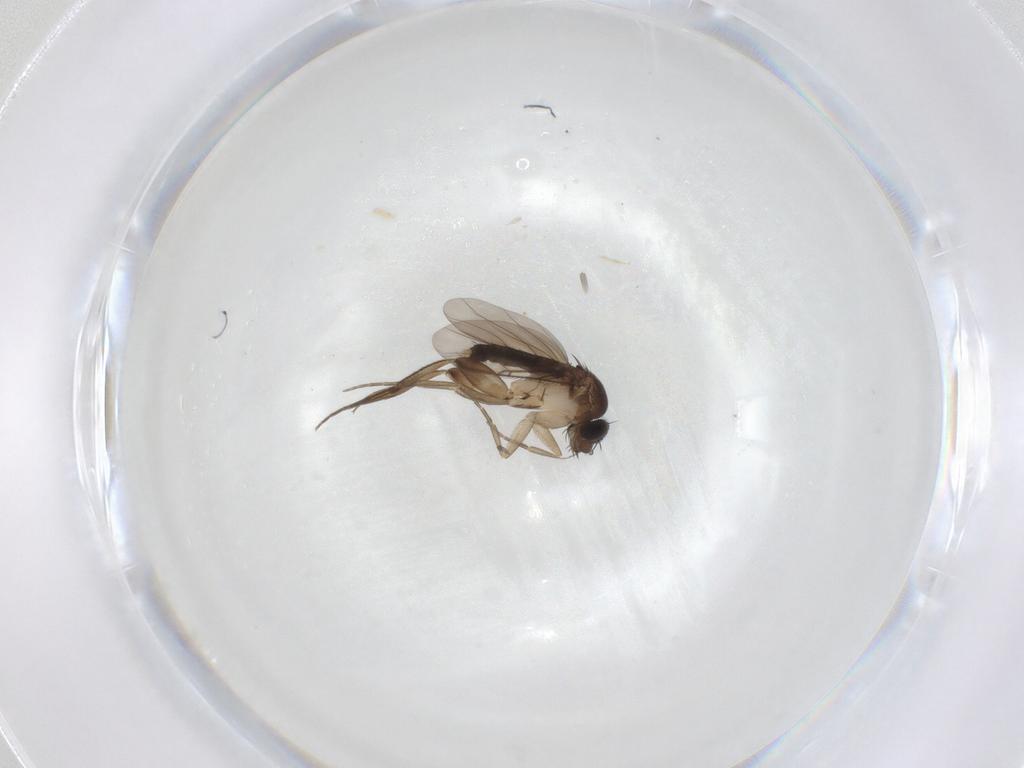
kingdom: Animalia
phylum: Arthropoda
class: Insecta
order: Diptera
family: Phoridae
